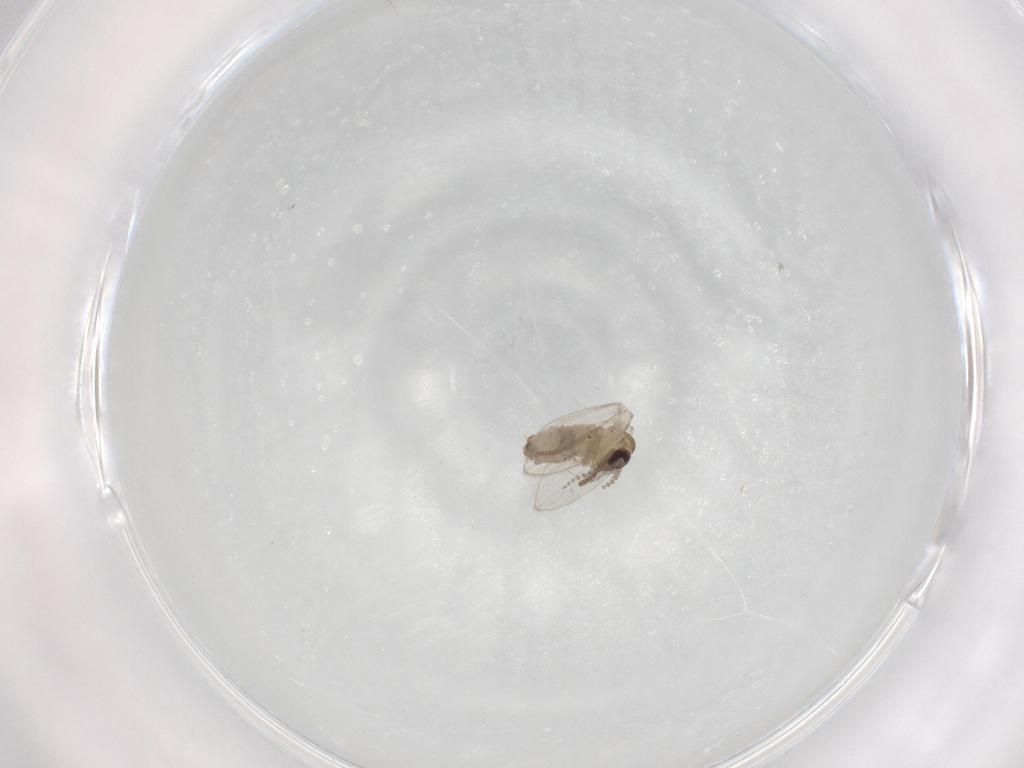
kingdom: Animalia
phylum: Arthropoda
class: Insecta
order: Diptera
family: Psychodidae
